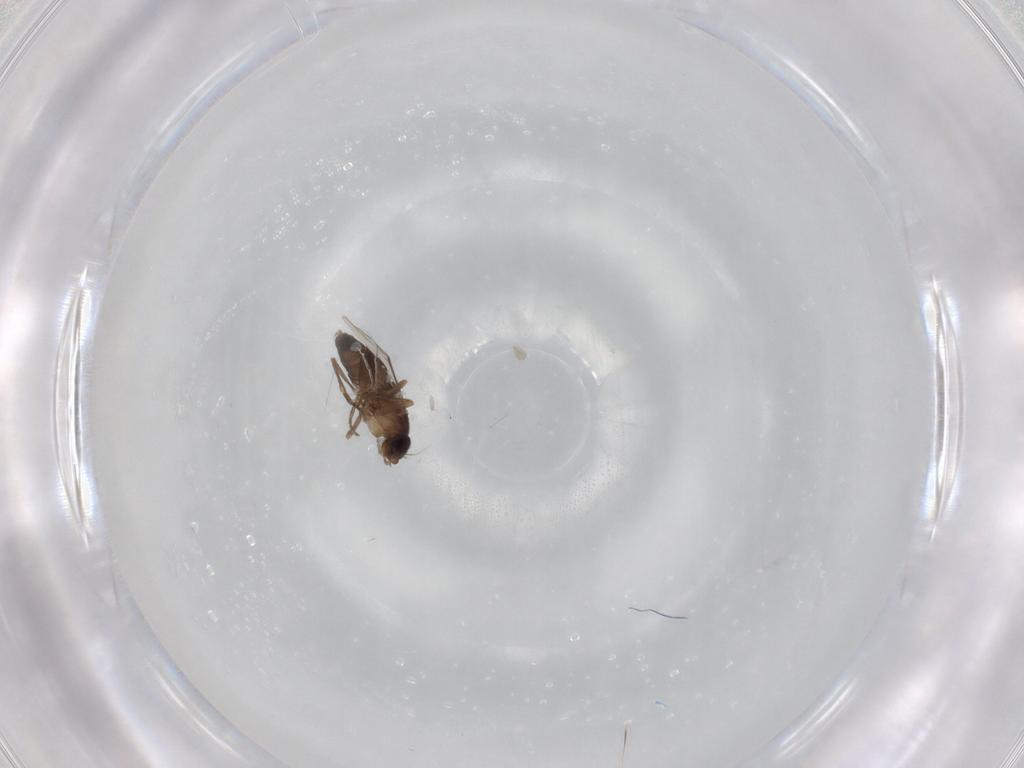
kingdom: Animalia
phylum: Arthropoda
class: Insecta
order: Diptera
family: Phoridae
